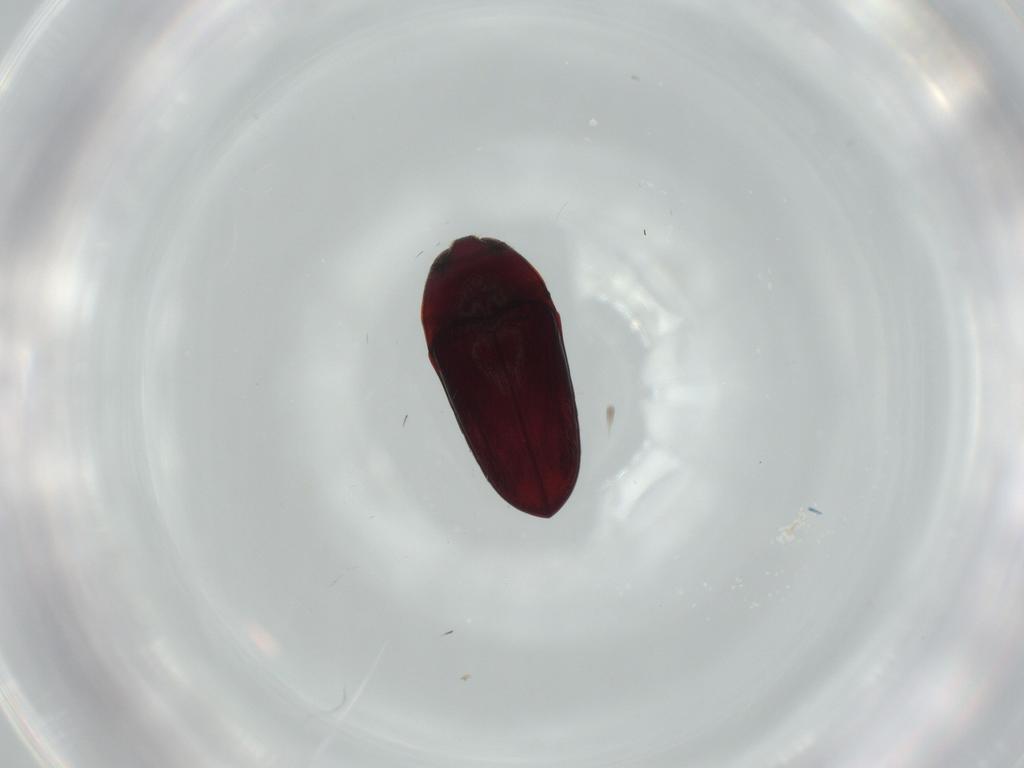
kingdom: Animalia
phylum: Arthropoda
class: Insecta
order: Coleoptera
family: Throscidae
